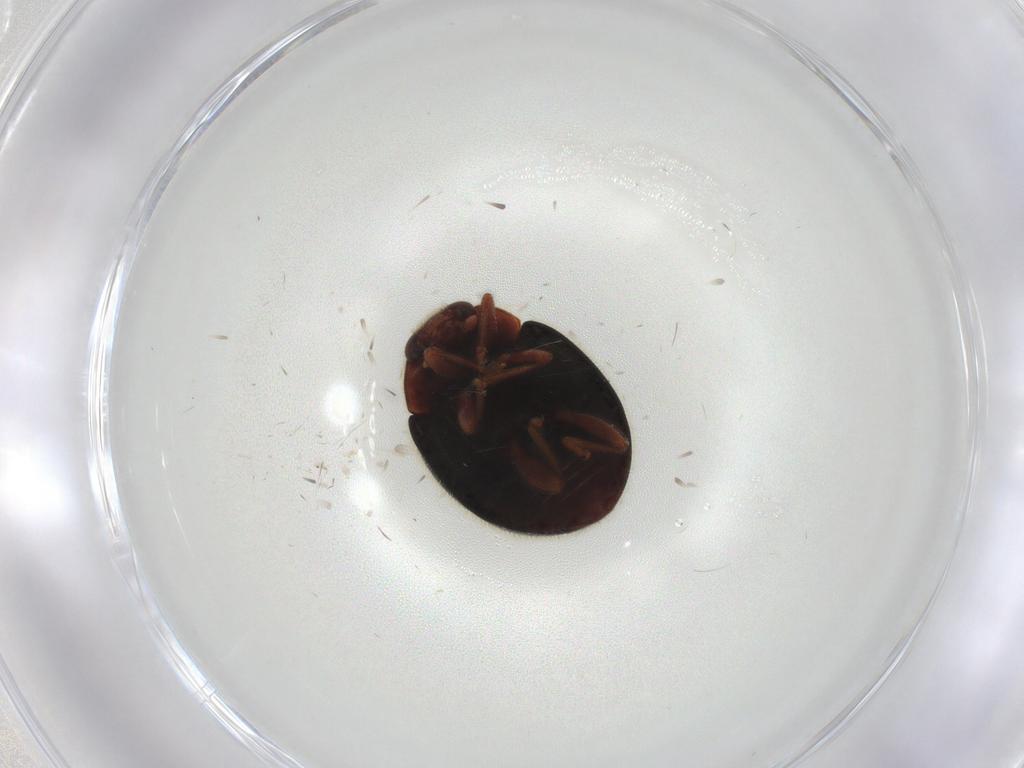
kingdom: Animalia
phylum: Arthropoda
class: Insecta
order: Coleoptera
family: Coccinellidae
